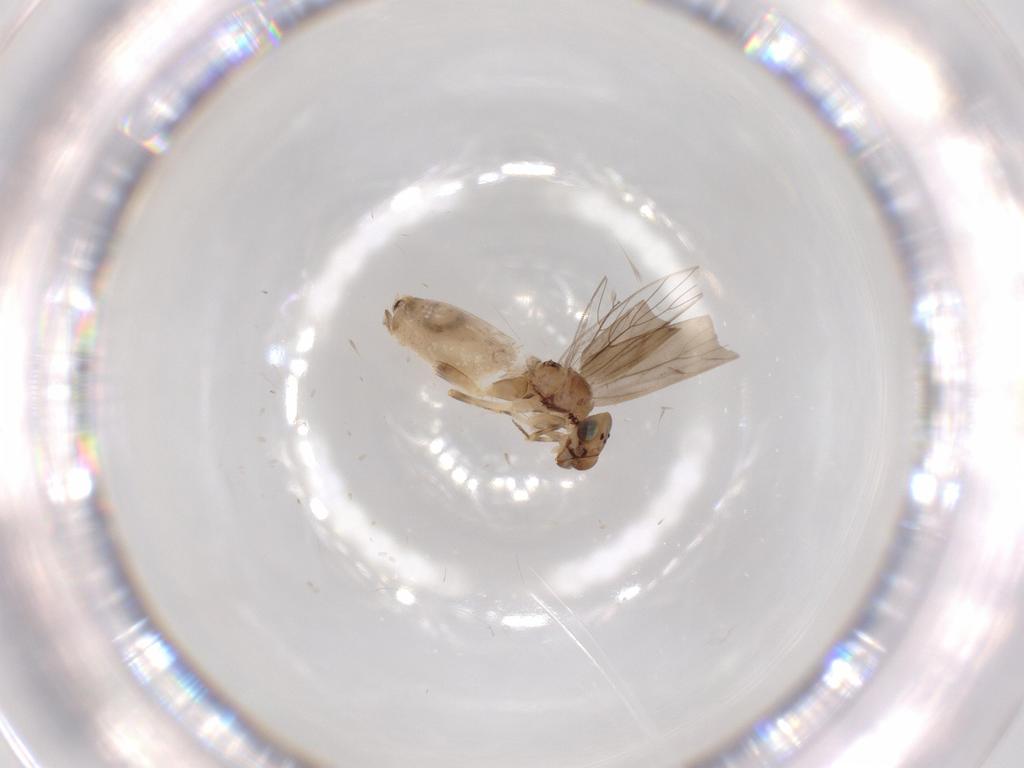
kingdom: Animalia
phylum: Arthropoda
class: Insecta
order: Psocodea
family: Lepidopsocidae
